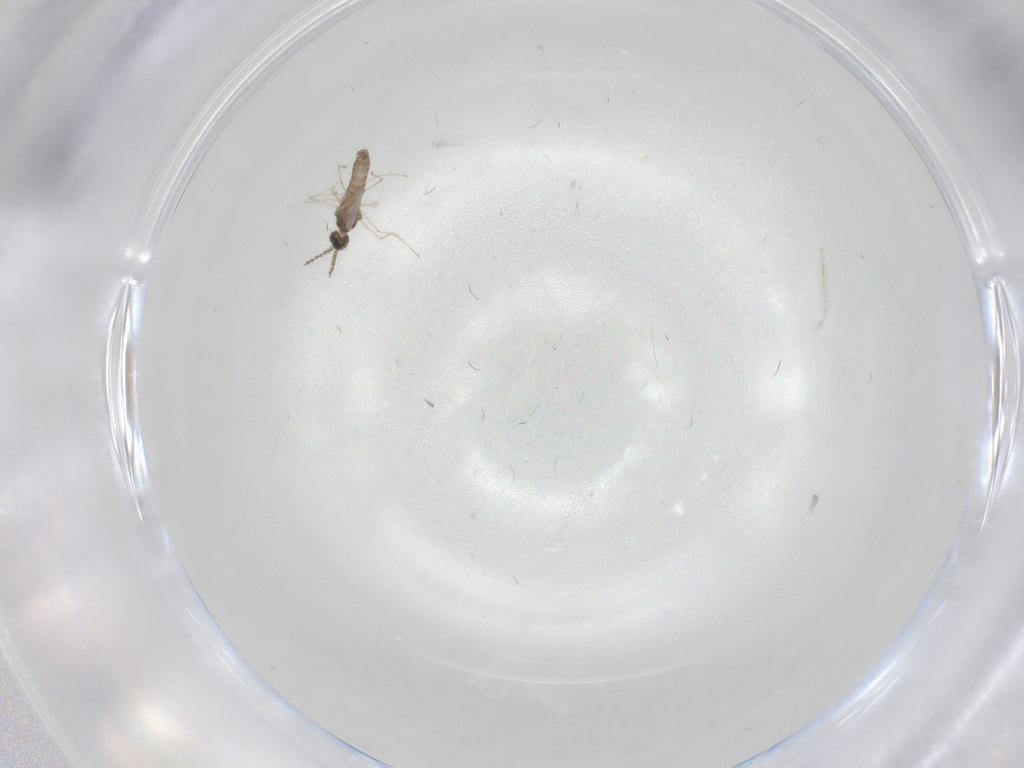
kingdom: Animalia
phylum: Arthropoda
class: Insecta
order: Diptera
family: Cecidomyiidae
